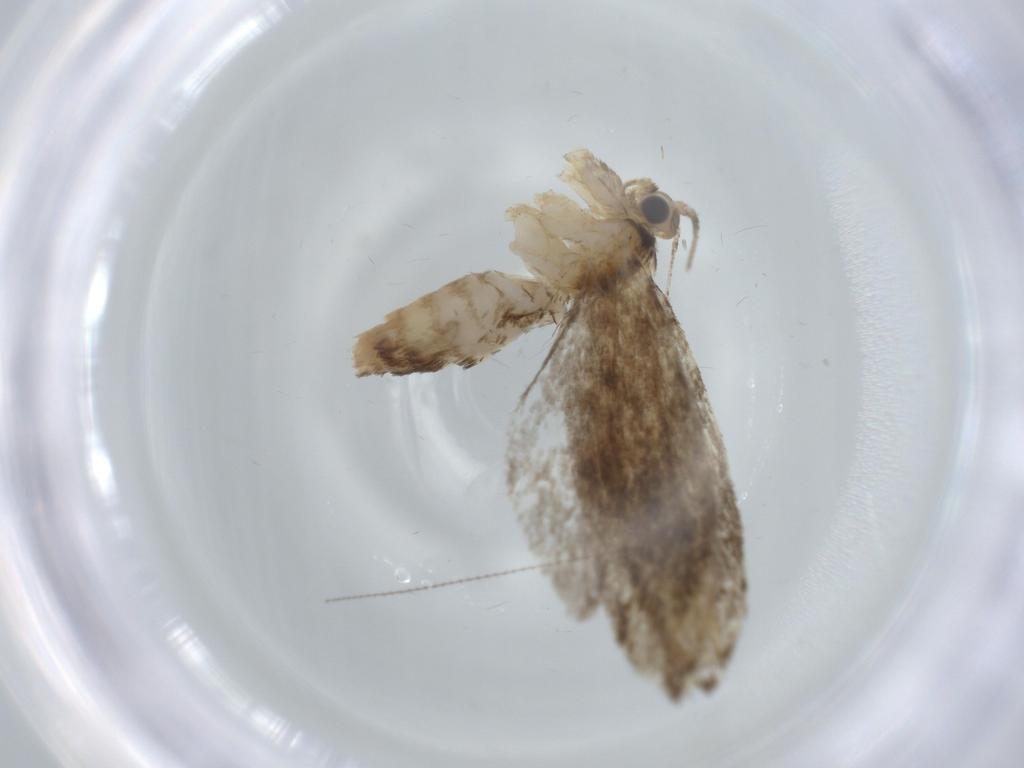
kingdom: Animalia
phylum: Arthropoda
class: Insecta
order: Lepidoptera
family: Tineidae
